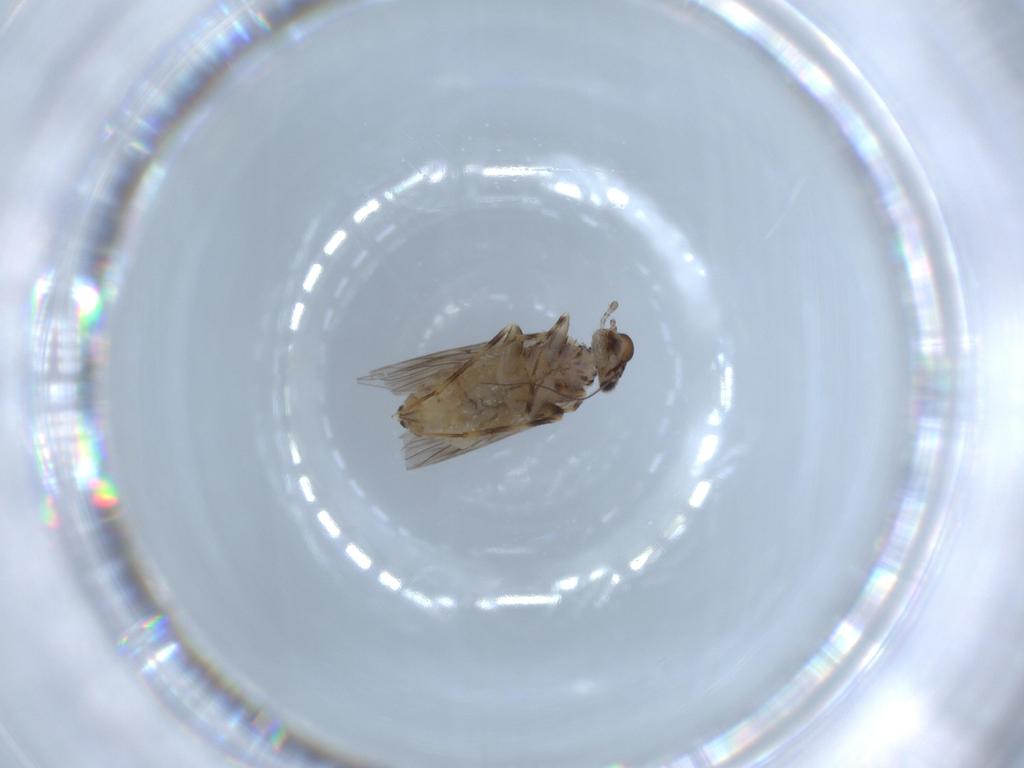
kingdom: Animalia
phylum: Arthropoda
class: Insecta
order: Psocodea
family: Lepidopsocidae
